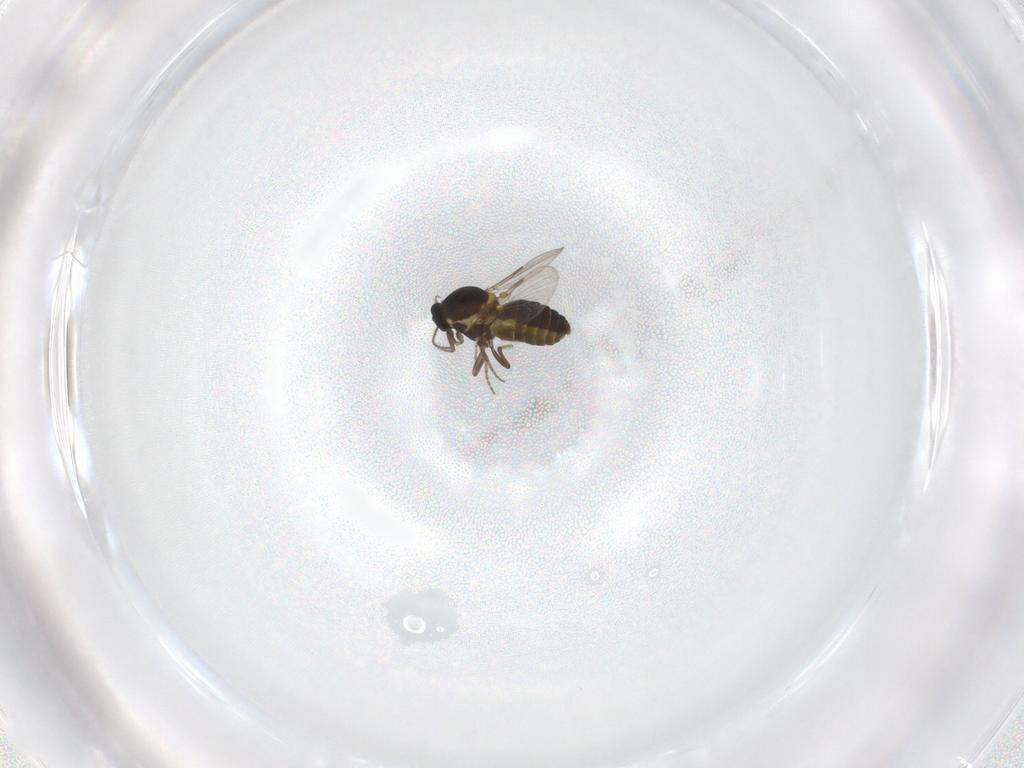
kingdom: Animalia
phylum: Arthropoda
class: Insecta
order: Diptera
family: Ceratopogonidae
